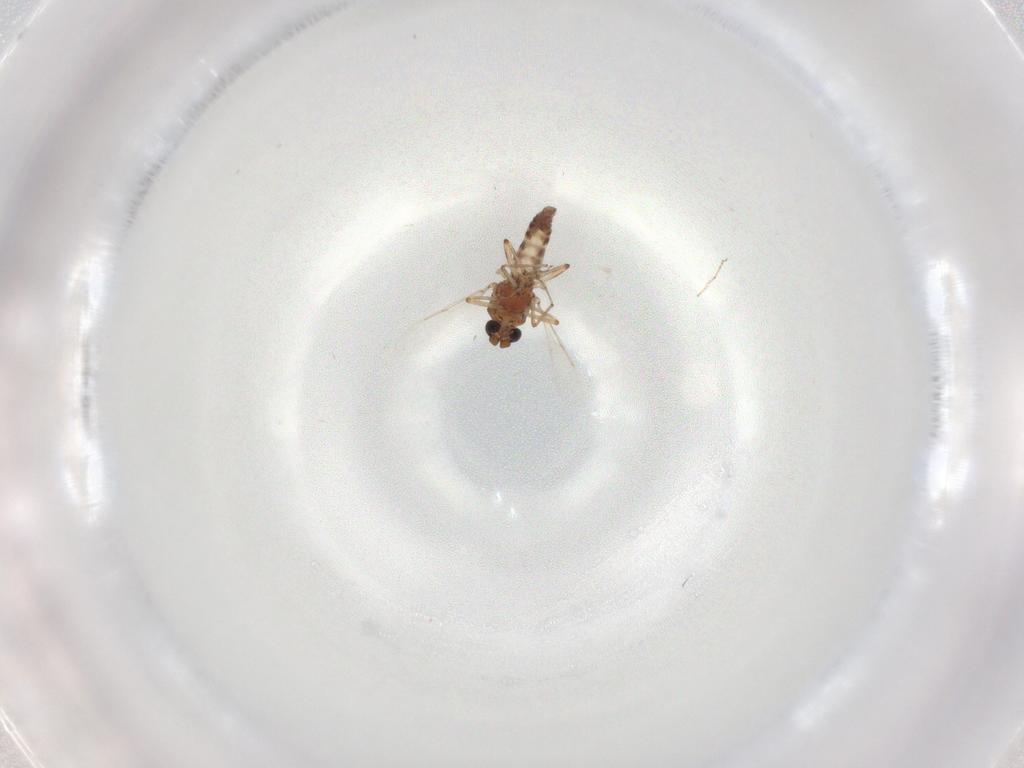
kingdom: Animalia
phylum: Arthropoda
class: Insecta
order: Diptera
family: Ceratopogonidae
